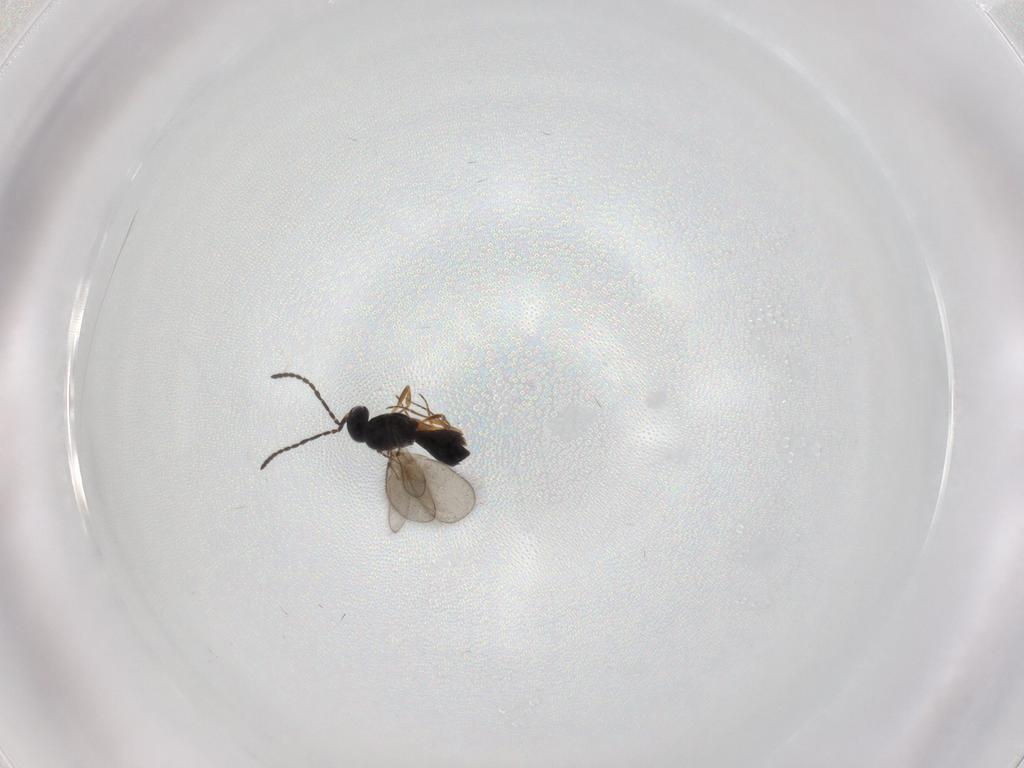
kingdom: Animalia
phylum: Arthropoda
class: Insecta
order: Hymenoptera
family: Scelionidae
